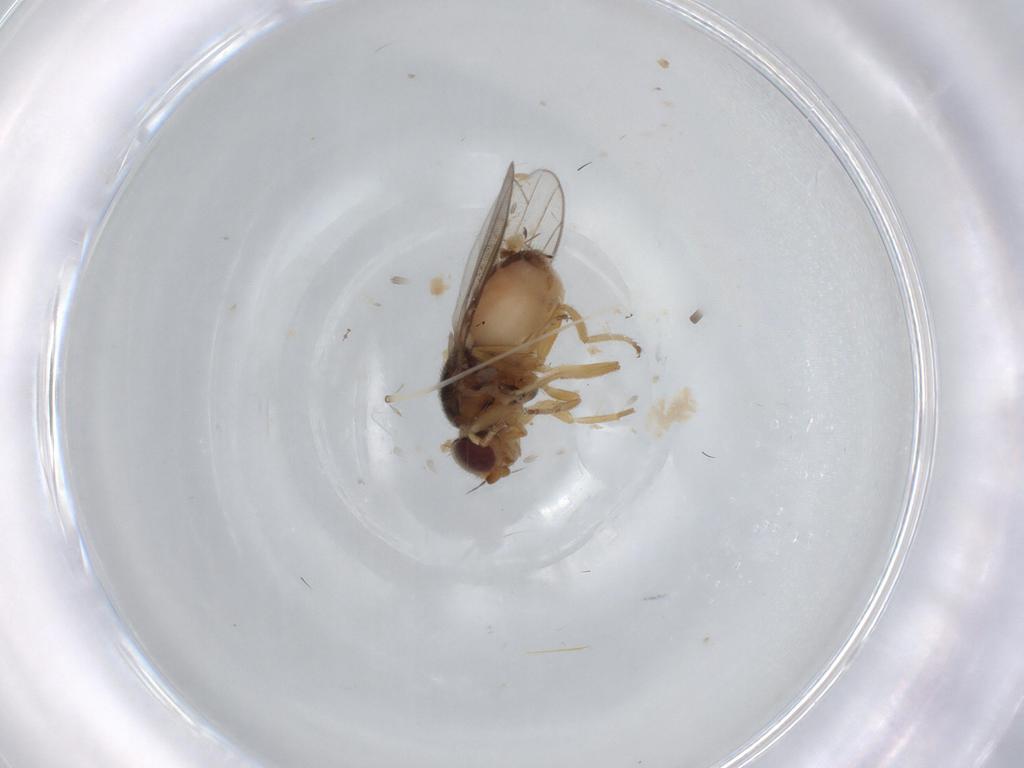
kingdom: Animalia
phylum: Arthropoda
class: Insecta
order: Diptera
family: Chloropidae
